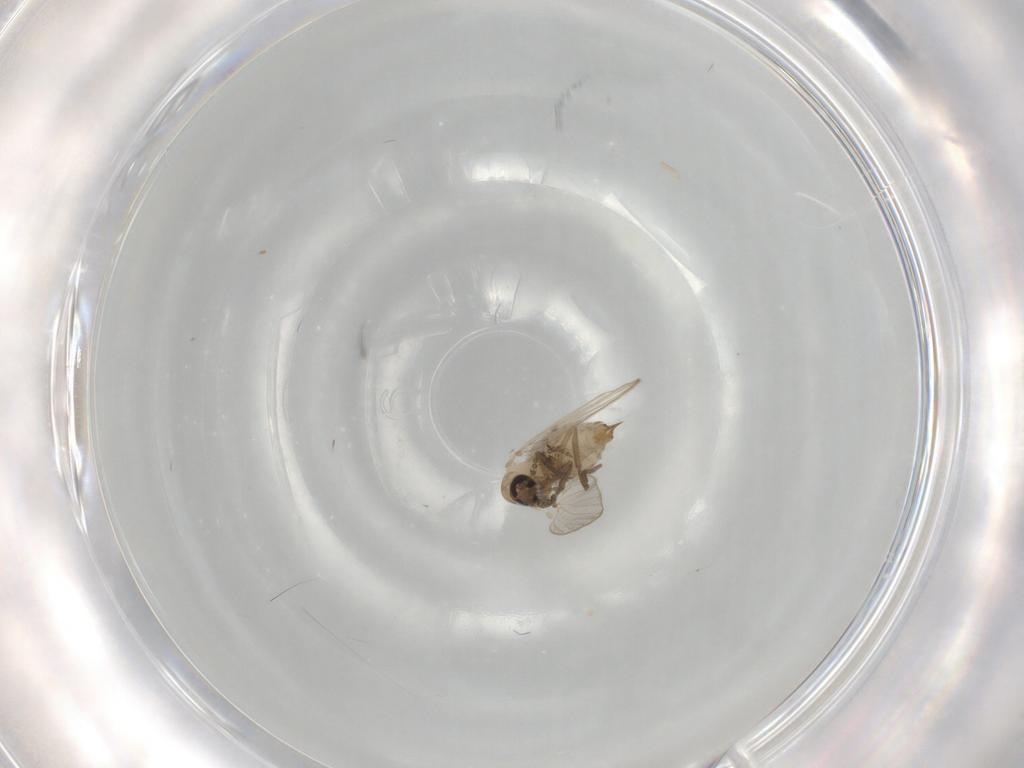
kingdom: Animalia
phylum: Arthropoda
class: Insecta
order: Diptera
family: Psychodidae
